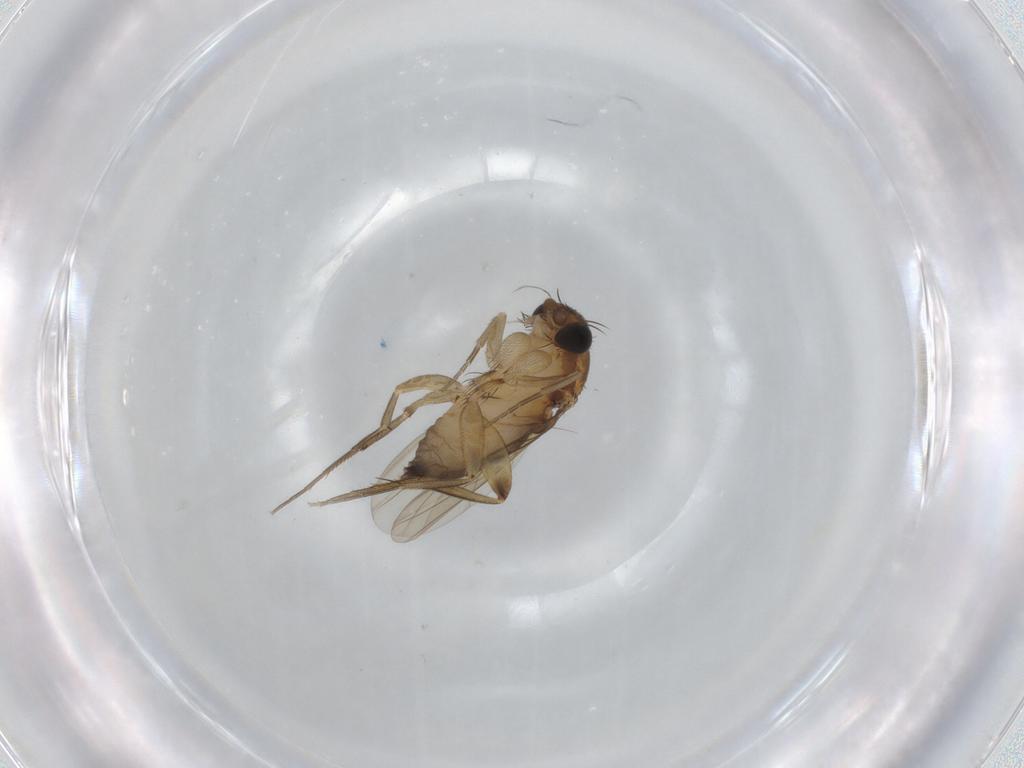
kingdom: Animalia
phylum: Arthropoda
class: Insecta
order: Diptera
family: Phoridae
